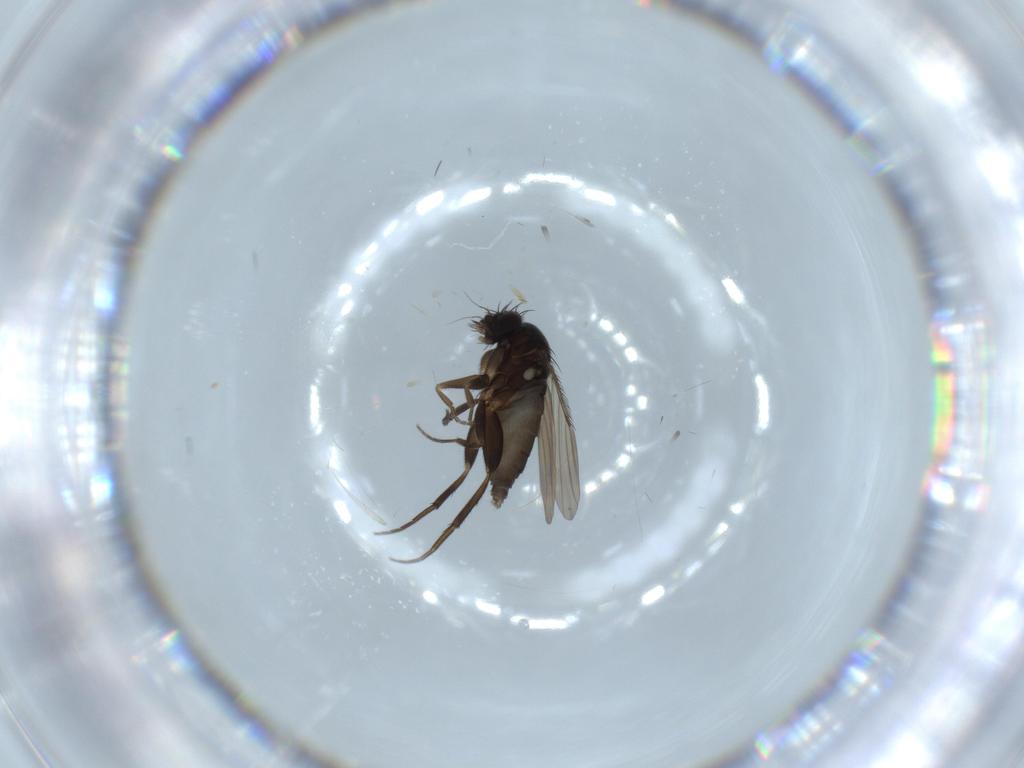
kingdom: Animalia
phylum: Arthropoda
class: Insecta
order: Diptera
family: Phoridae
